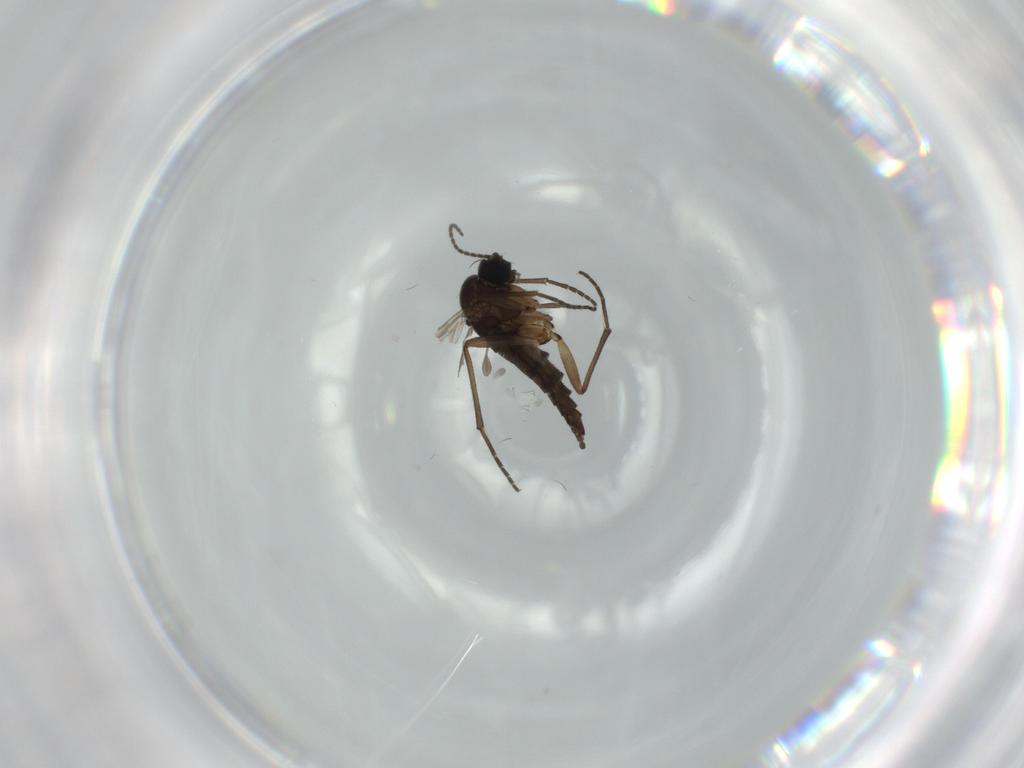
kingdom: Animalia
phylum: Arthropoda
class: Insecta
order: Diptera
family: Sciaridae
